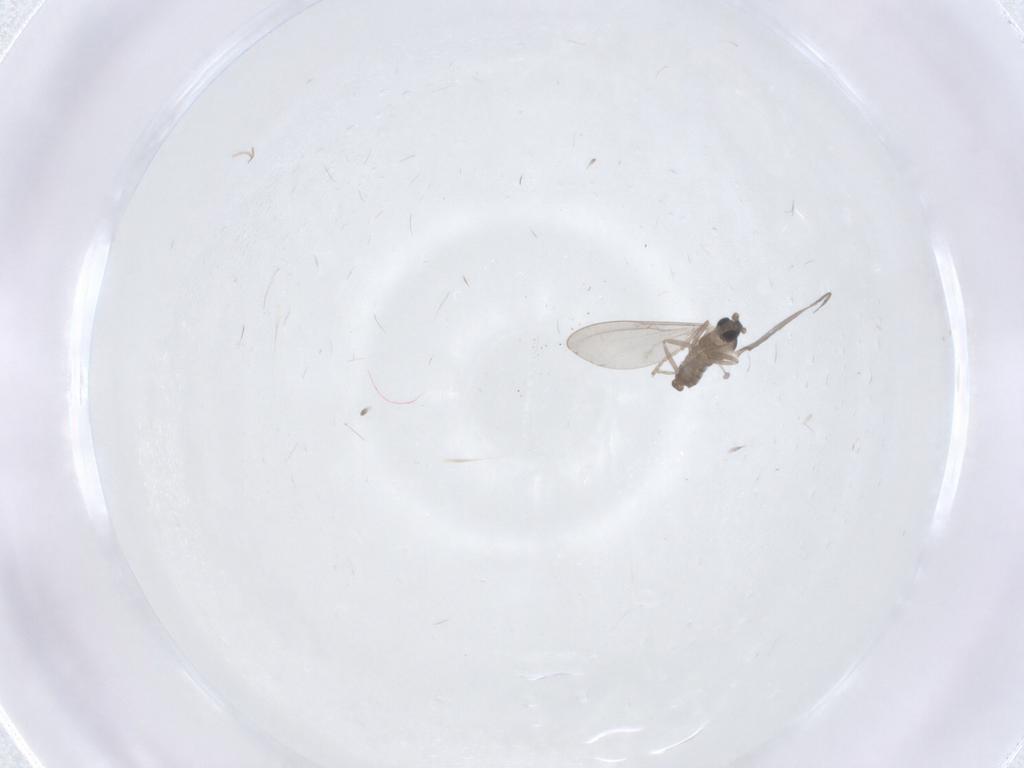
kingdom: Animalia
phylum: Arthropoda
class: Insecta
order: Diptera
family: Cecidomyiidae
